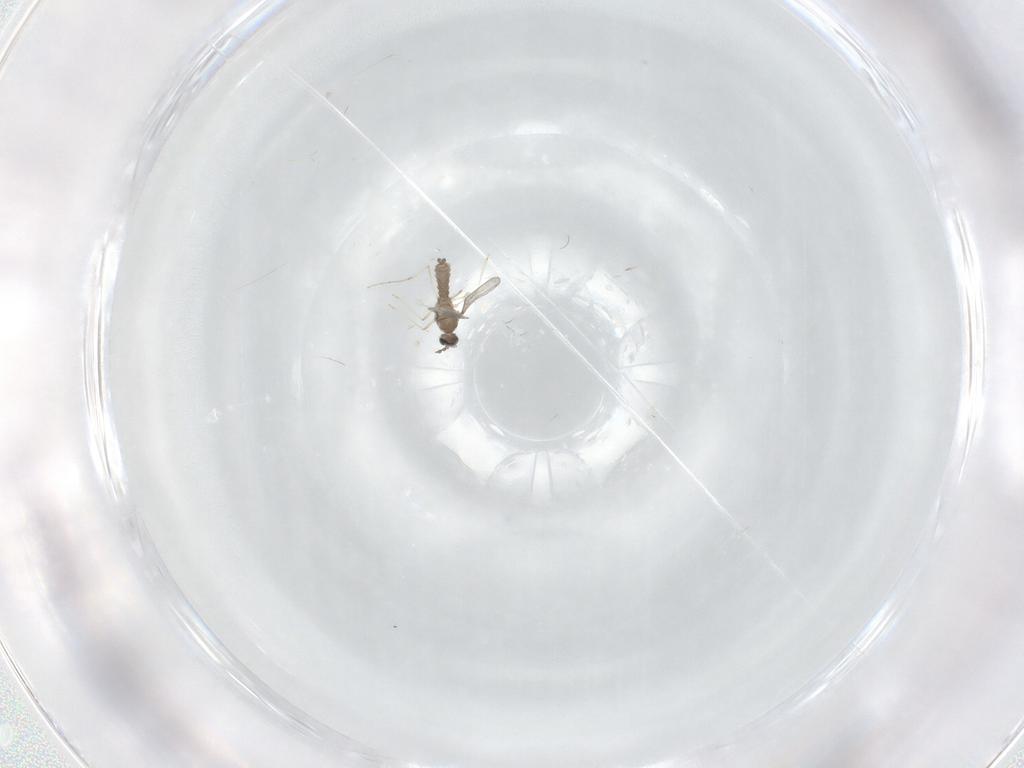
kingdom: Animalia
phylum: Arthropoda
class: Insecta
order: Diptera
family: Cecidomyiidae
